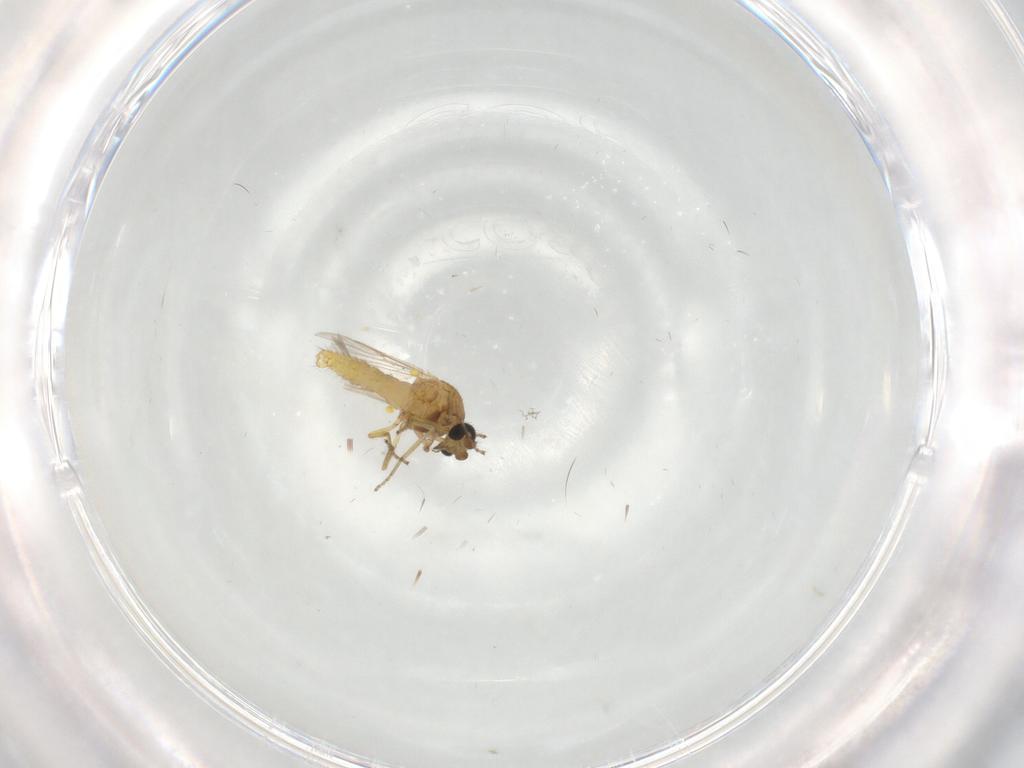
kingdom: Animalia
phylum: Arthropoda
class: Insecta
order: Diptera
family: Ceratopogonidae
